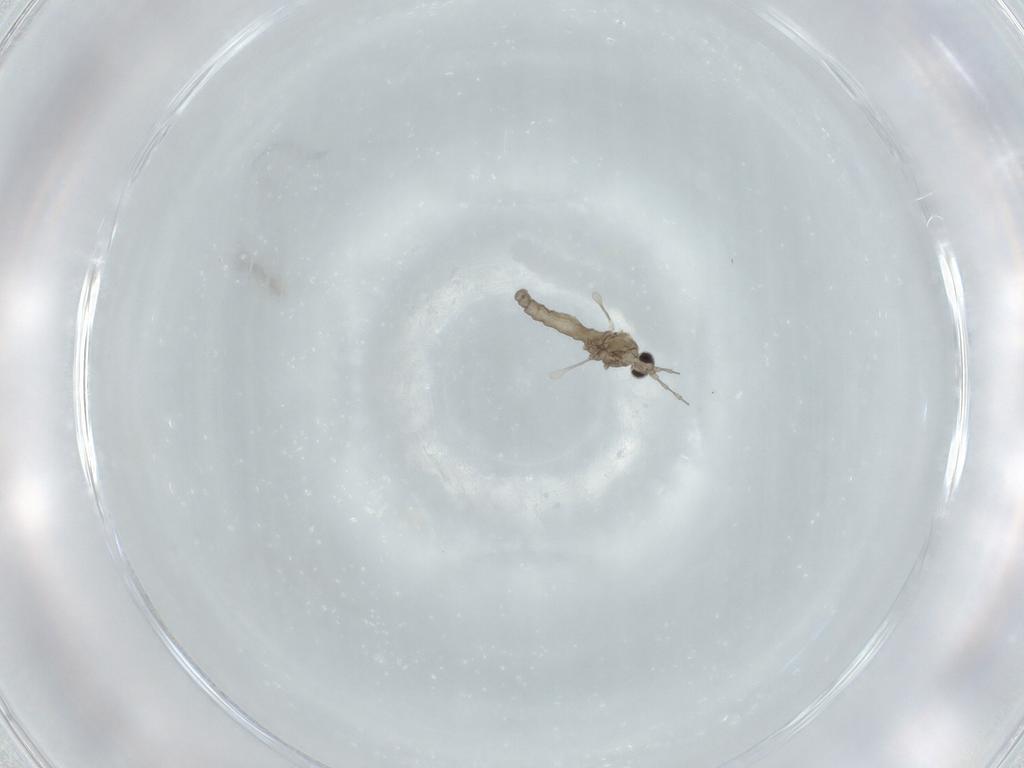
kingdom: Animalia
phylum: Arthropoda
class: Insecta
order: Diptera
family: Cecidomyiidae
